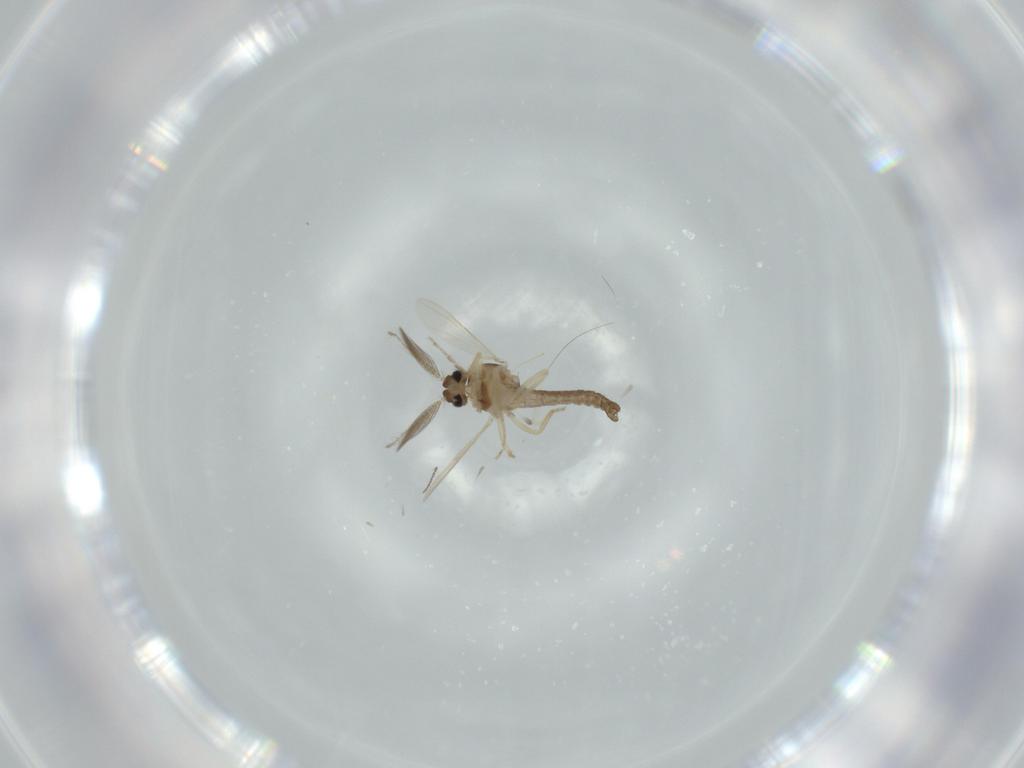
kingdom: Animalia
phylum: Arthropoda
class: Insecta
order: Diptera
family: Ceratopogonidae
